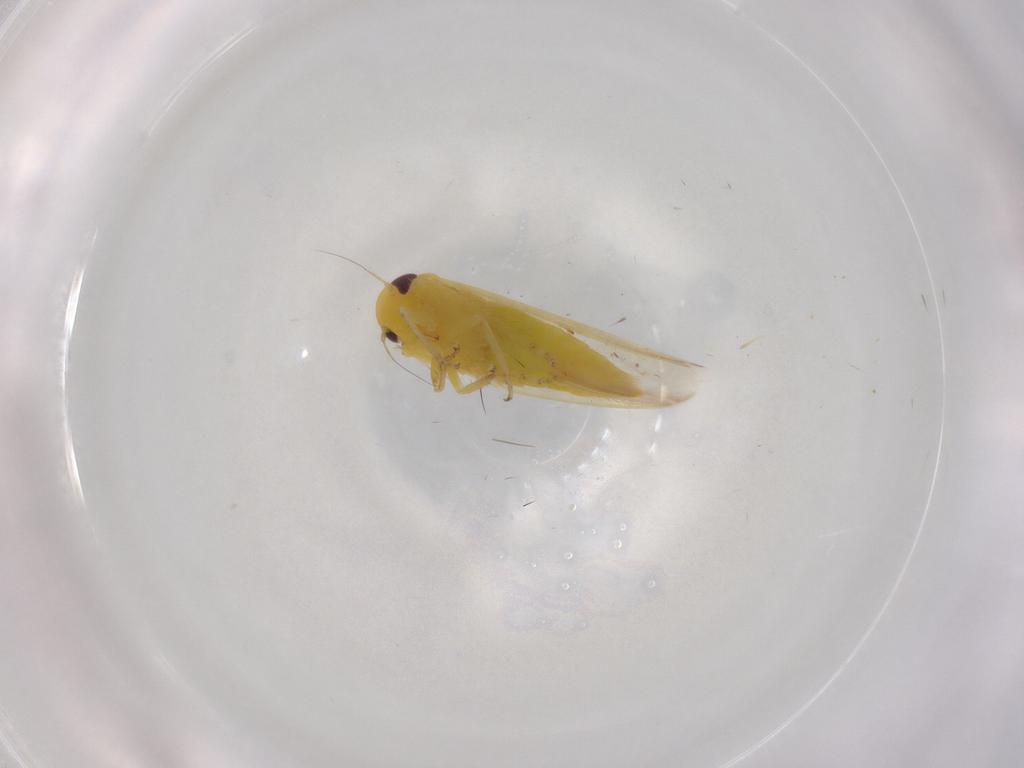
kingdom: Animalia
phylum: Arthropoda
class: Insecta
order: Hemiptera
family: Cicadellidae
